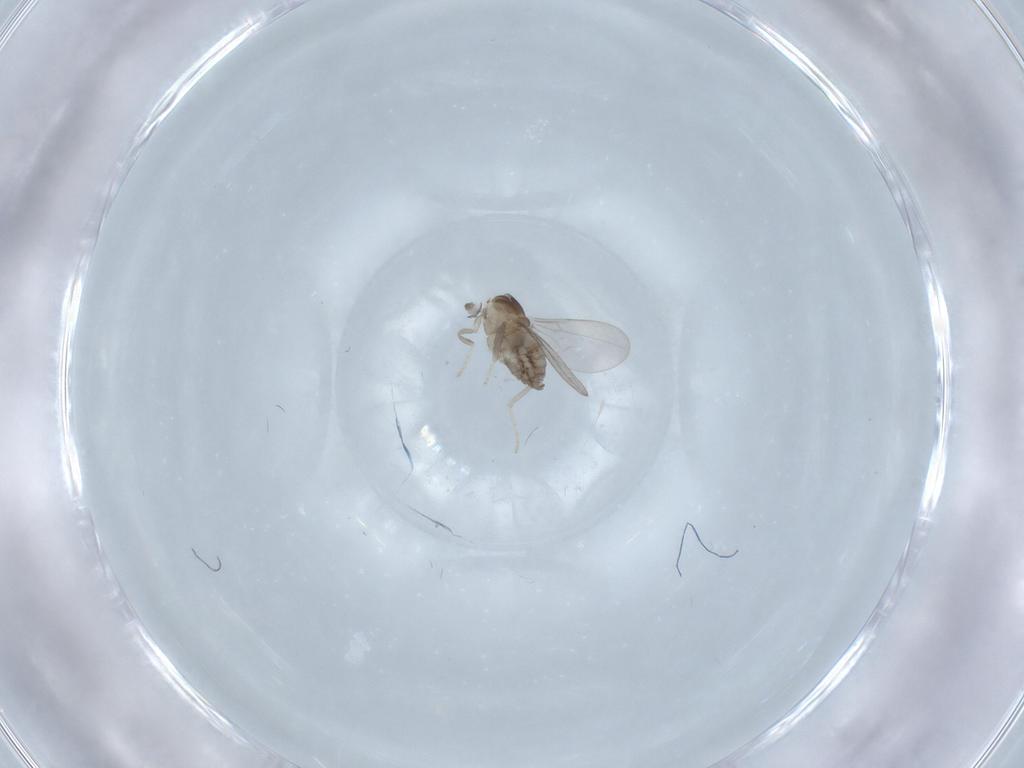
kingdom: Animalia
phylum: Arthropoda
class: Insecta
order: Diptera
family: Cecidomyiidae
